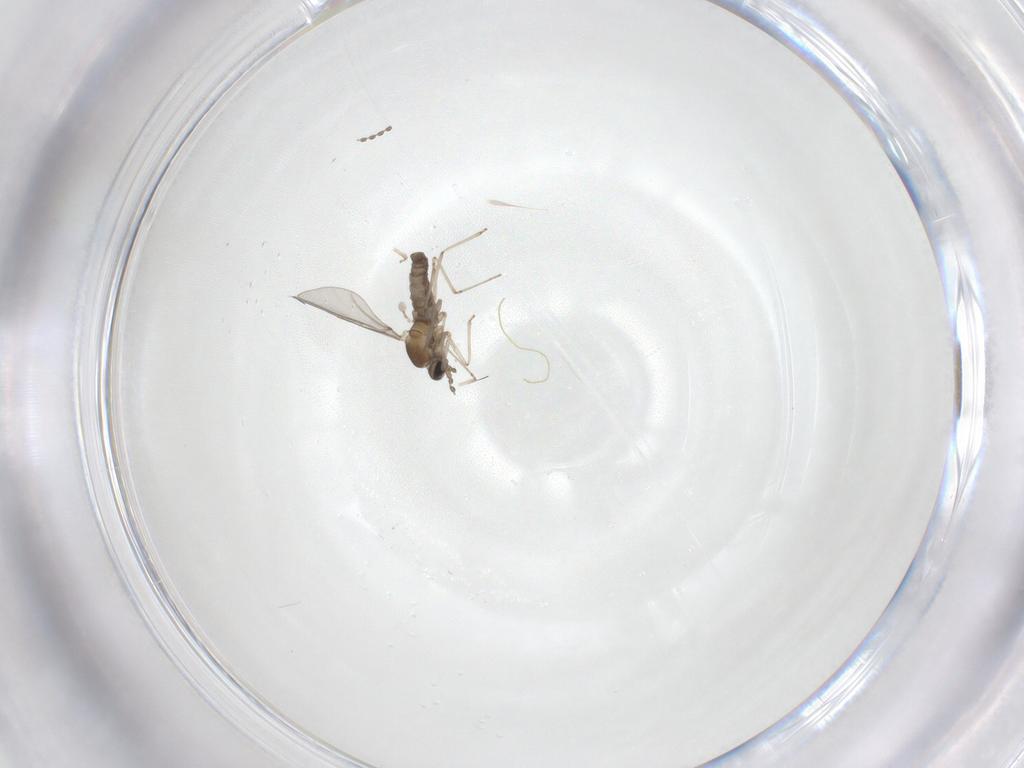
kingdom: Animalia
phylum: Arthropoda
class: Insecta
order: Diptera
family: Cecidomyiidae
